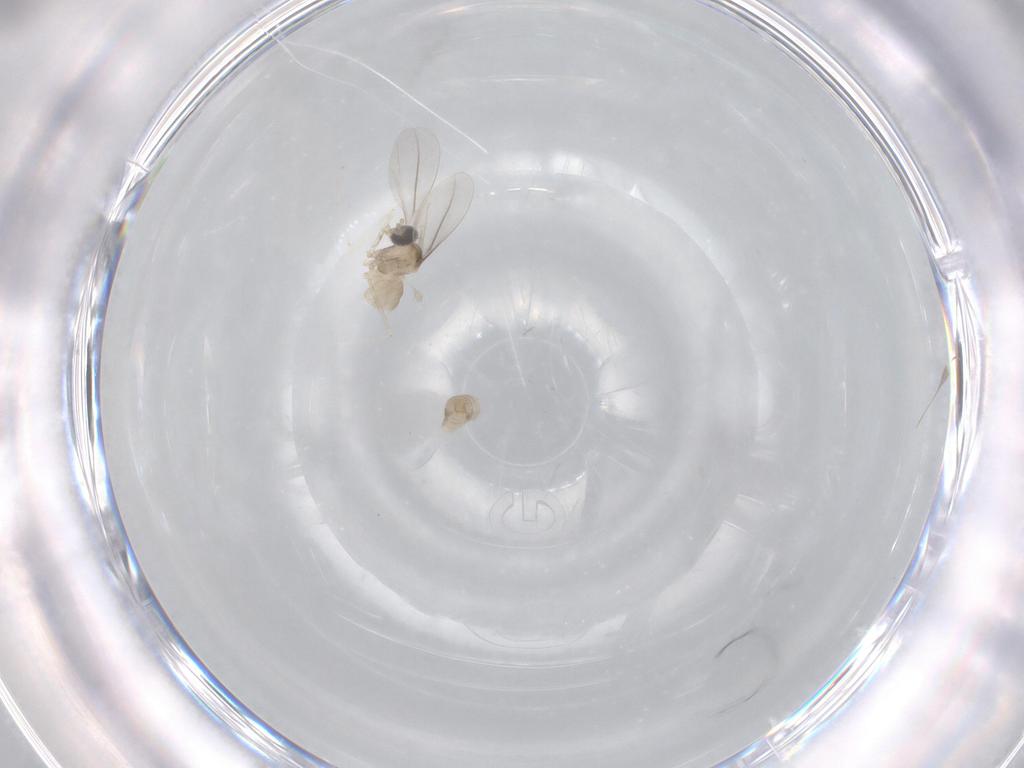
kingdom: Animalia
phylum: Arthropoda
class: Insecta
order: Diptera
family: Cecidomyiidae
